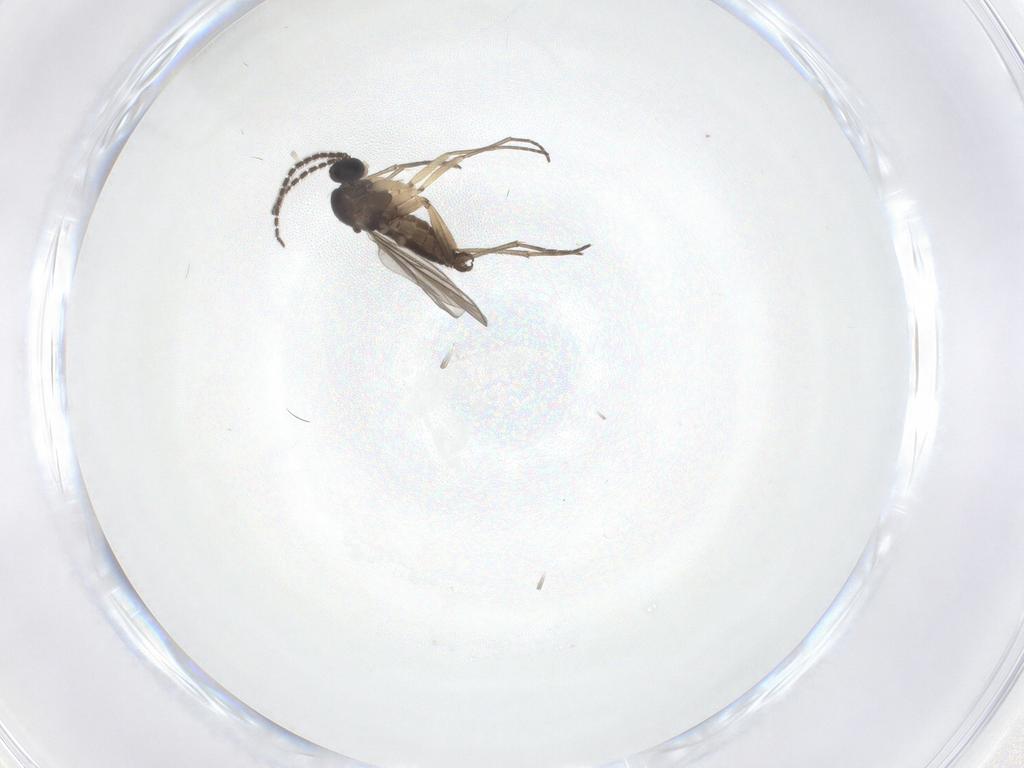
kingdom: Animalia
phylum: Arthropoda
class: Insecta
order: Diptera
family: Sciaridae
